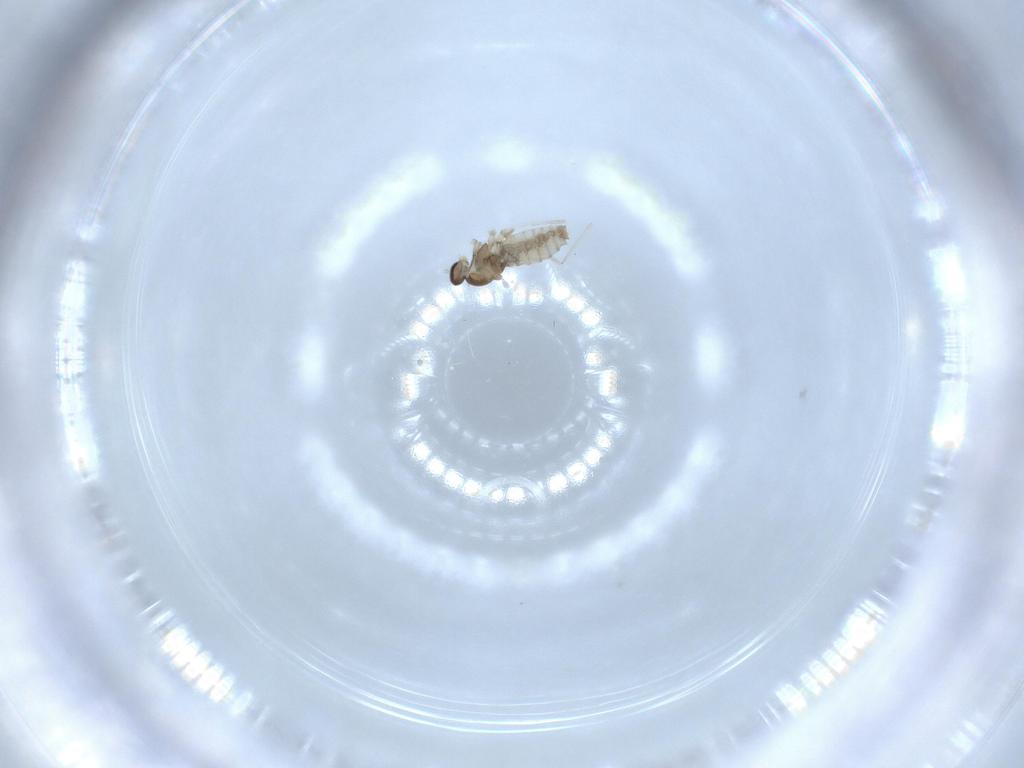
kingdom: Animalia
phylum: Arthropoda
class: Insecta
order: Diptera
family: Cecidomyiidae
